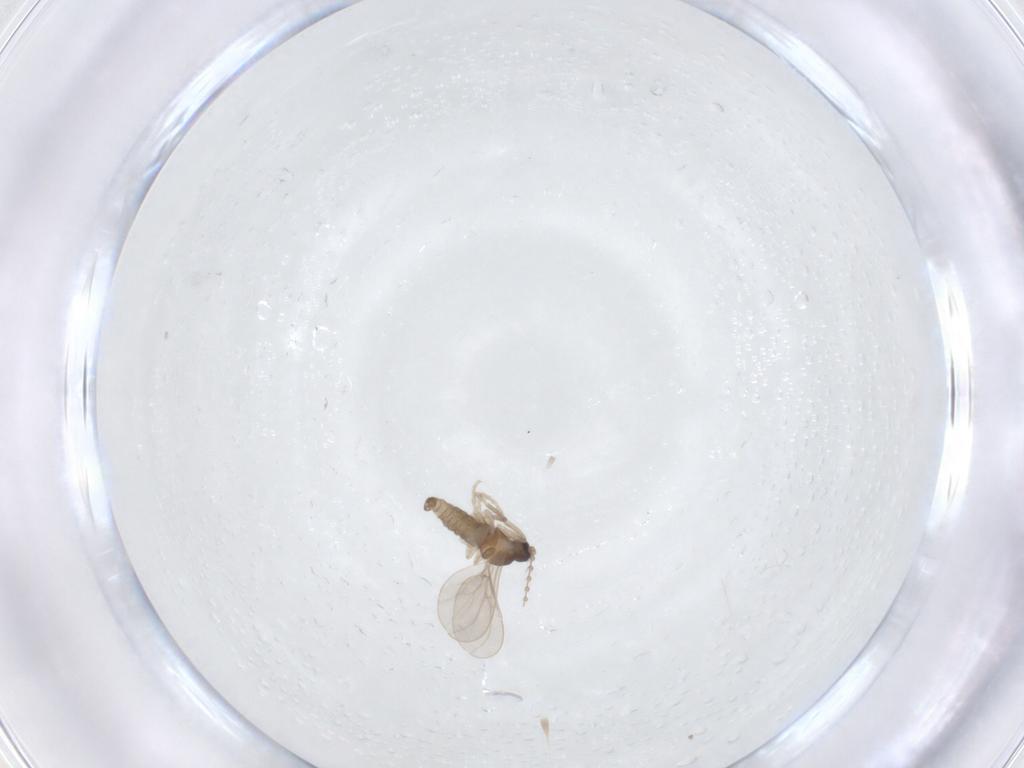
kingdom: Animalia
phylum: Arthropoda
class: Insecta
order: Diptera
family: Cecidomyiidae
